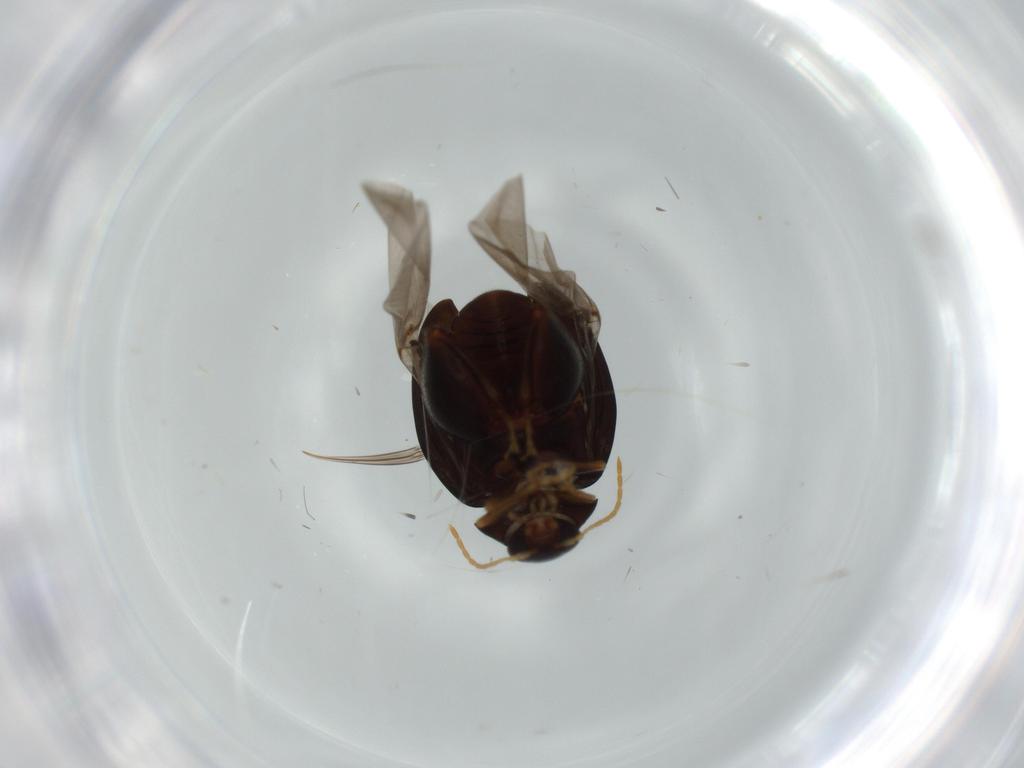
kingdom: Animalia
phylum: Arthropoda
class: Insecta
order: Coleoptera
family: Chrysomelidae
